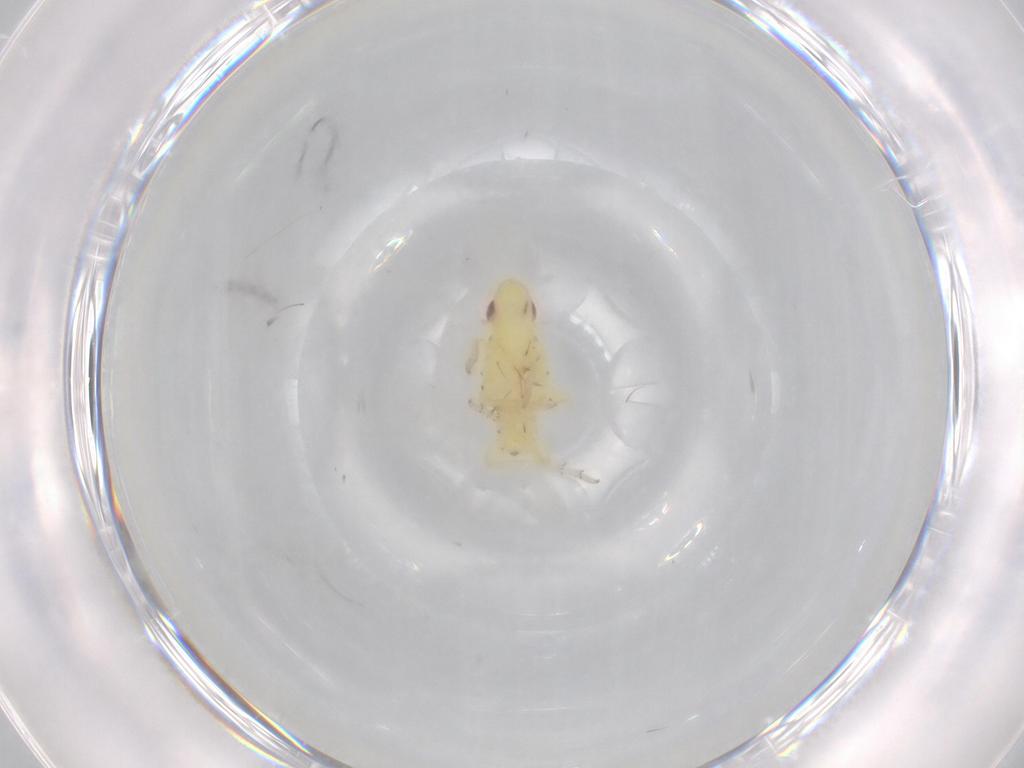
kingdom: Animalia
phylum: Arthropoda
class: Insecta
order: Hemiptera
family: Tropiduchidae
